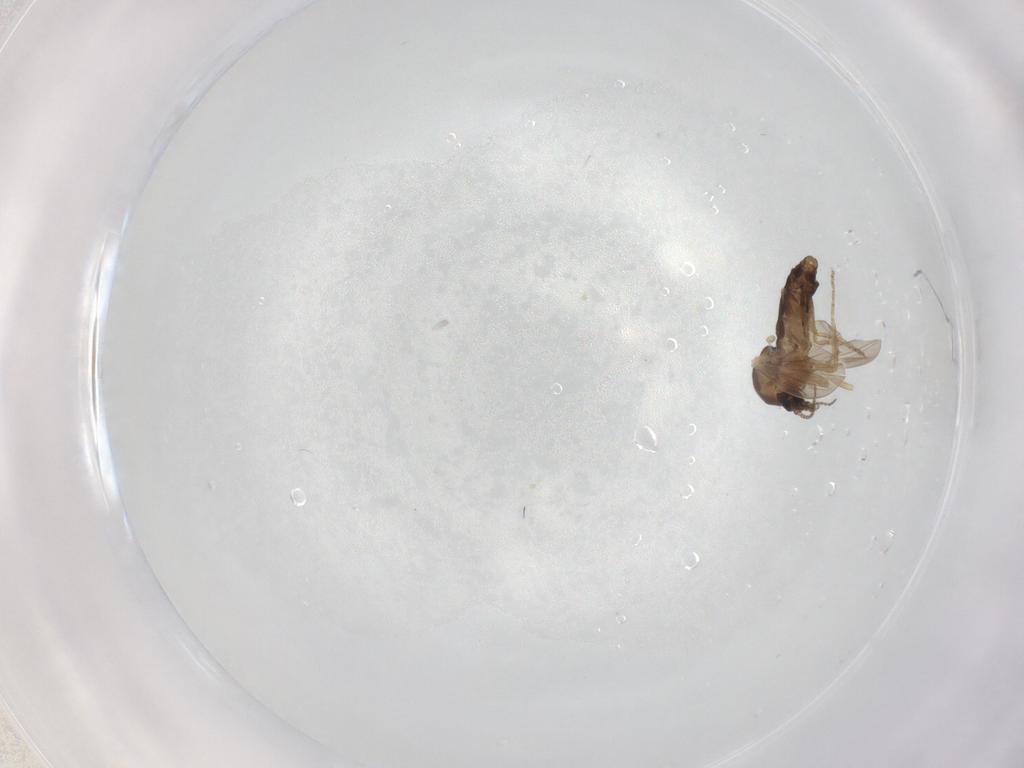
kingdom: Animalia
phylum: Arthropoda
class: Insecta
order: Diptera
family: Ceratopogonidae
